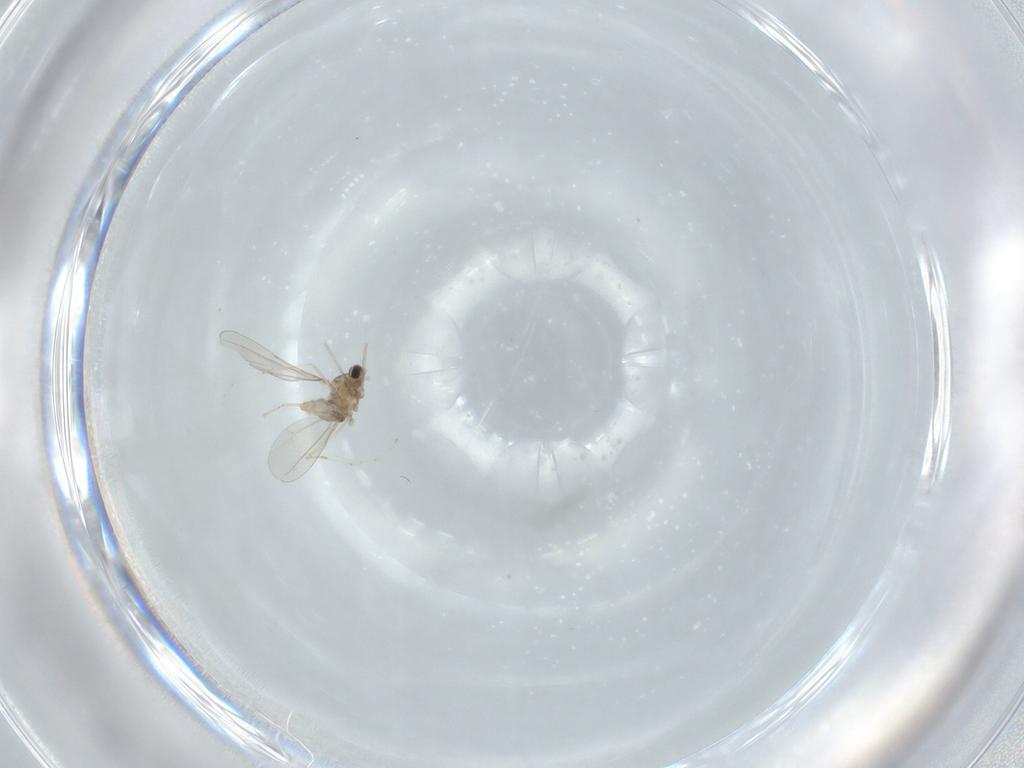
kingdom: Animalia
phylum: Arthropoda
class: Insecta
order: Diptera
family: Cecidomyiidae
